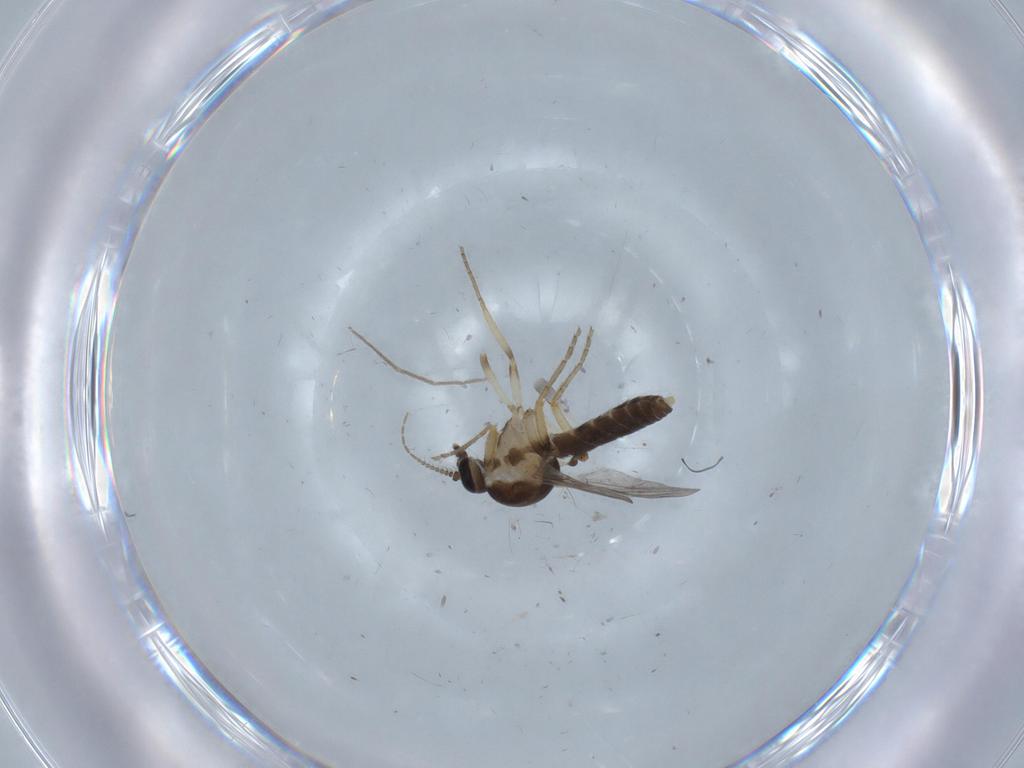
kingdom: Animalia
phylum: Arthropoda
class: Insecta
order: Diptera
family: Ceratopogonidae
